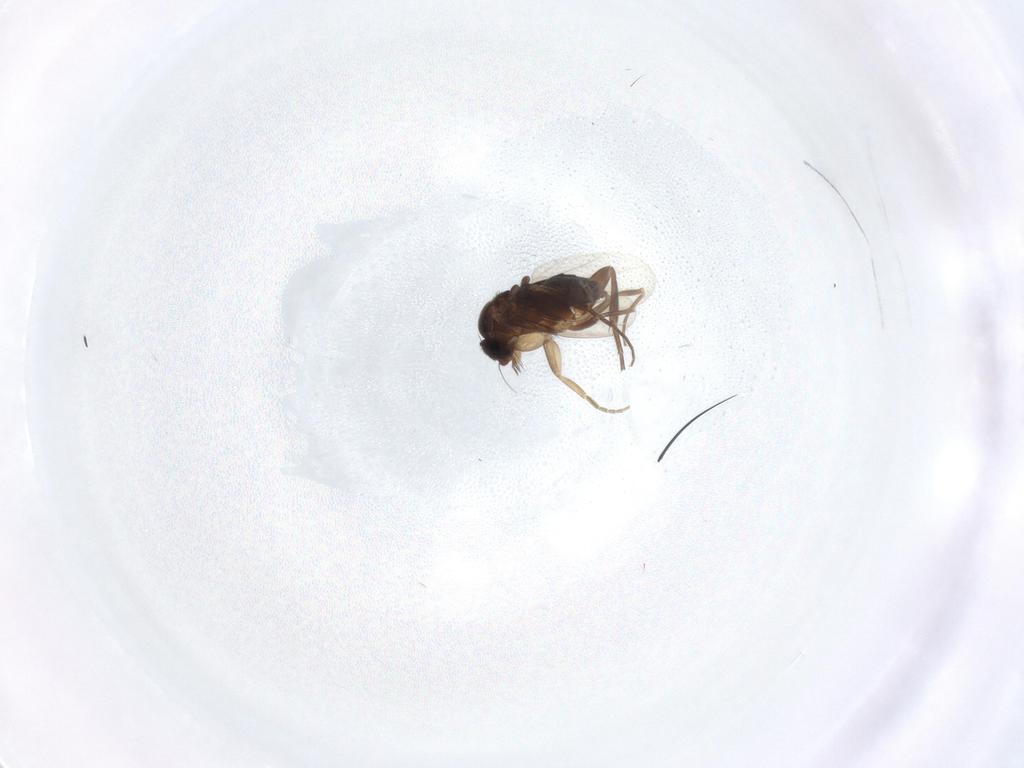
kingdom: Animalia
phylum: Arthropoda
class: Insecta
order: Diptera
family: Phoridae
